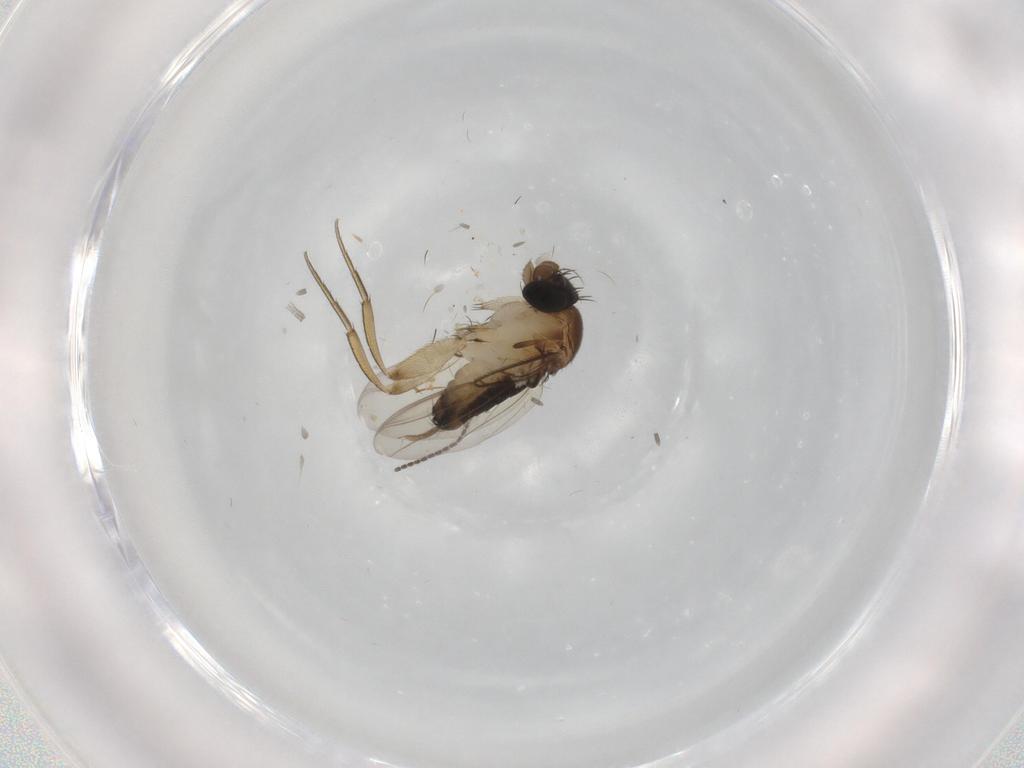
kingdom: Animalia
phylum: Arthropoda
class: Insecta
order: Diptera
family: Phoridae
